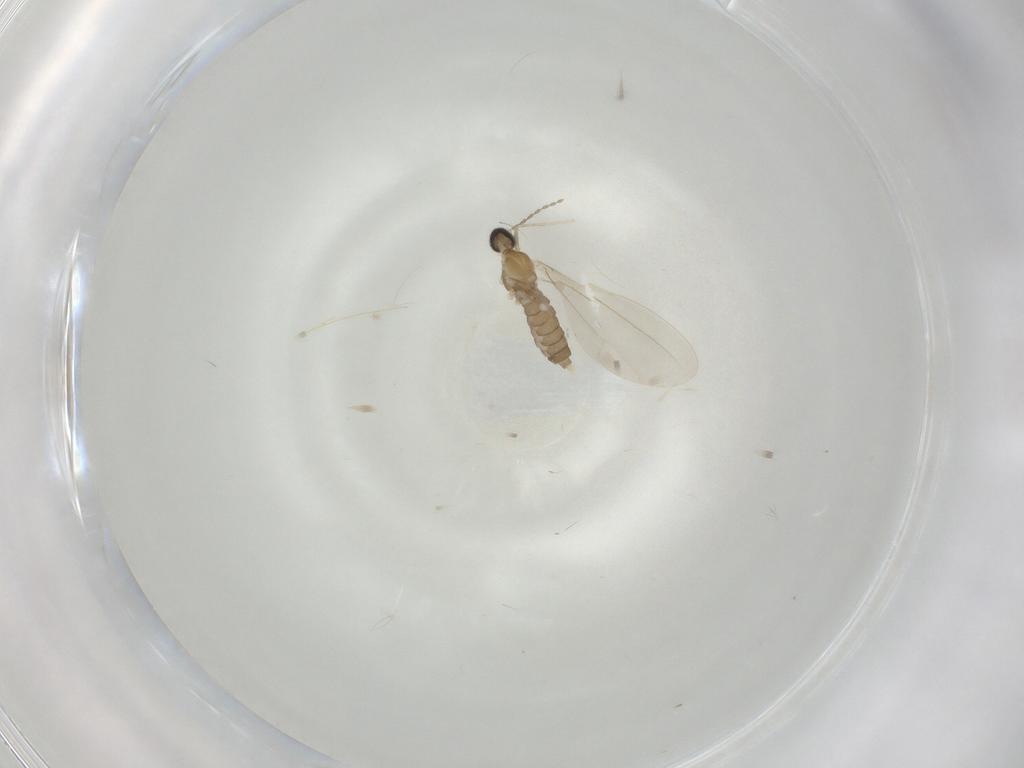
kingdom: Animalia
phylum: Arthropoda
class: Insecta
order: Diptera
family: Cecidomyiidae
